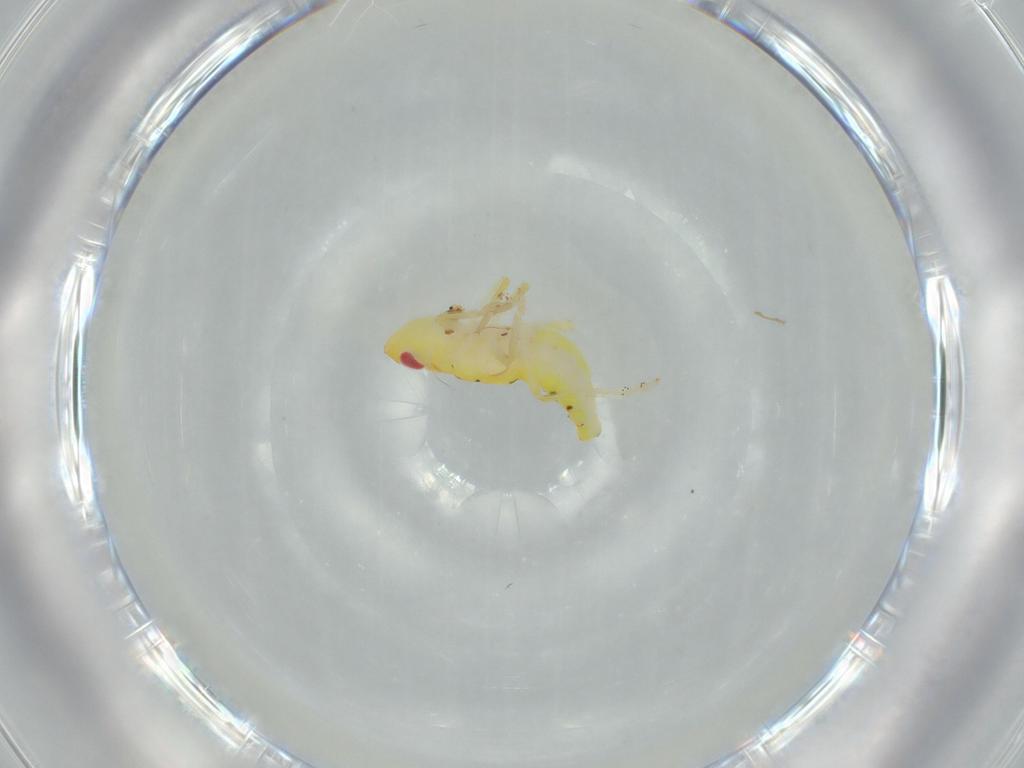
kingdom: Animalia
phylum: Arthropoda
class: Insecta
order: Hemiptera
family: Tropiduchidae
